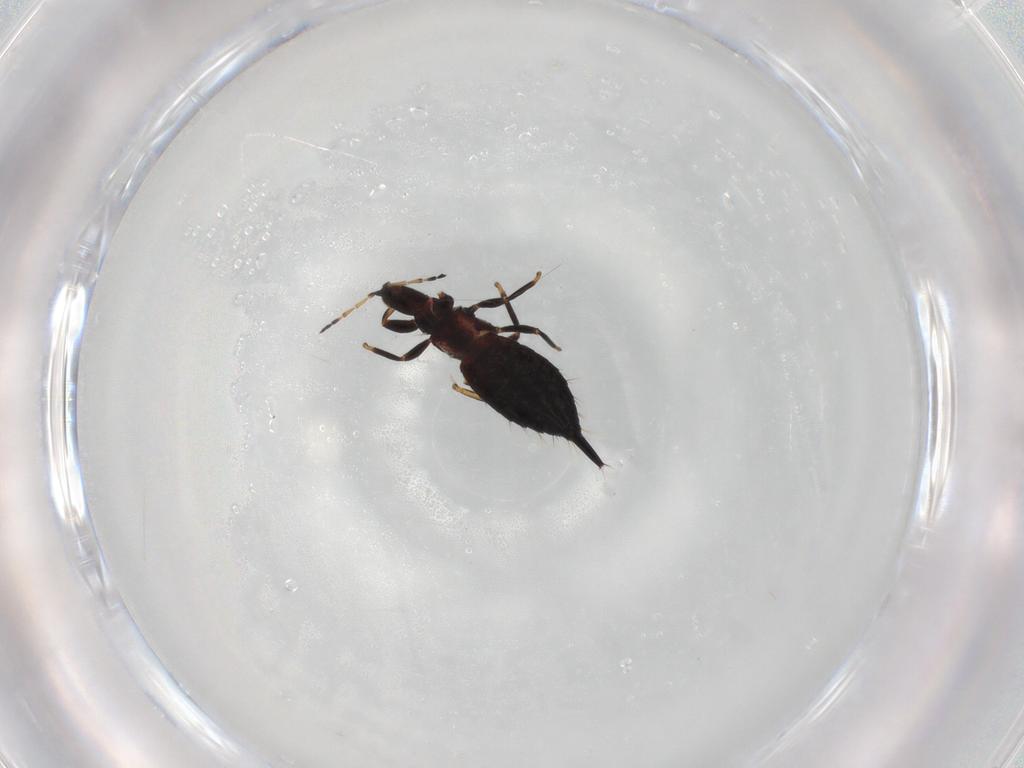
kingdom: Animalia
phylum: Arthropoda
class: Insecta
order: Thysanoptera
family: Phlaeothripidae
